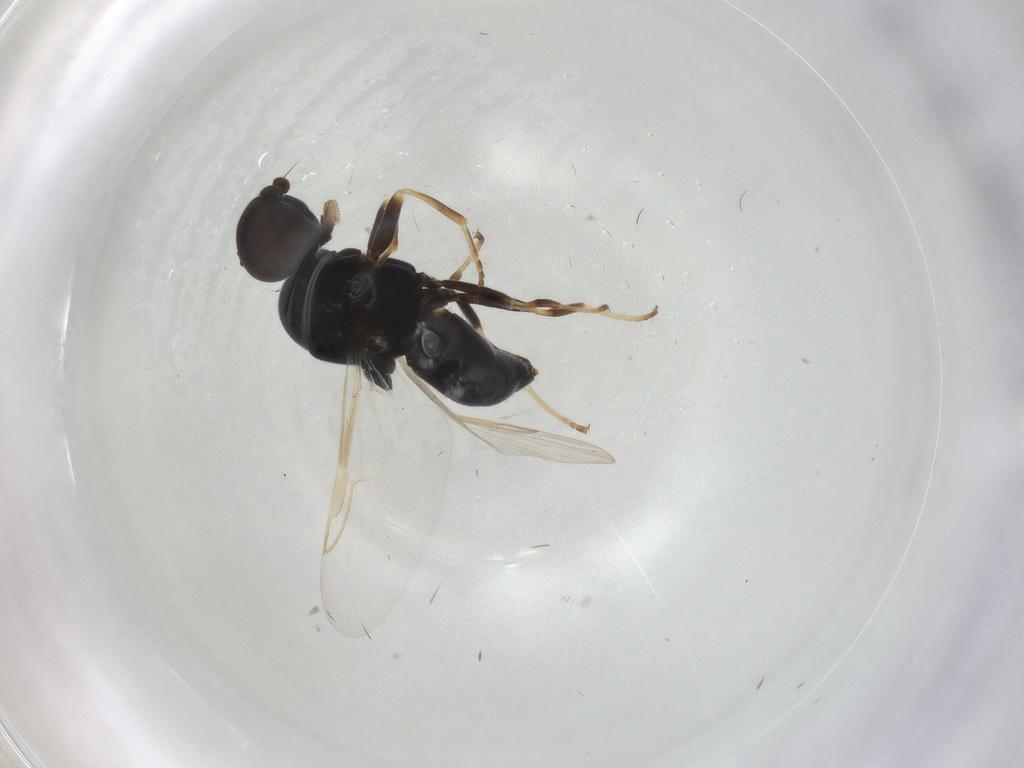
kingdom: Animalia
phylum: Arthropoda
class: Insecta
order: Diptera
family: Stratiomyidae
